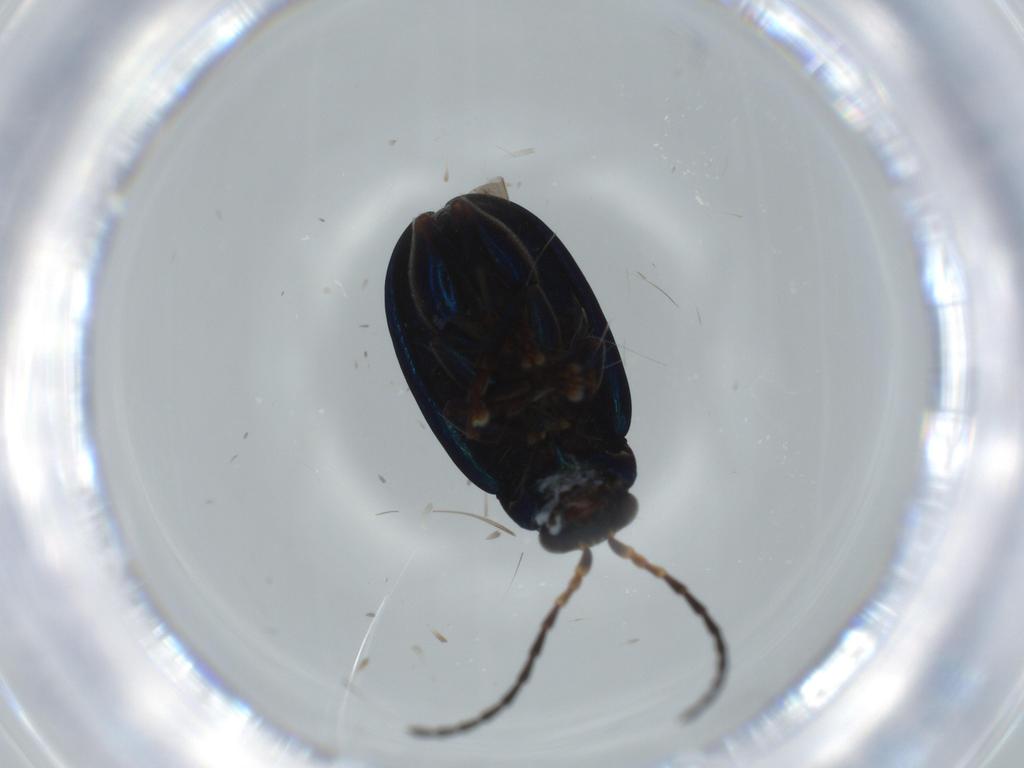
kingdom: Animalia
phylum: Arthropoda
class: Insecta
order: Coleoptera
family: Chrysomelidae
